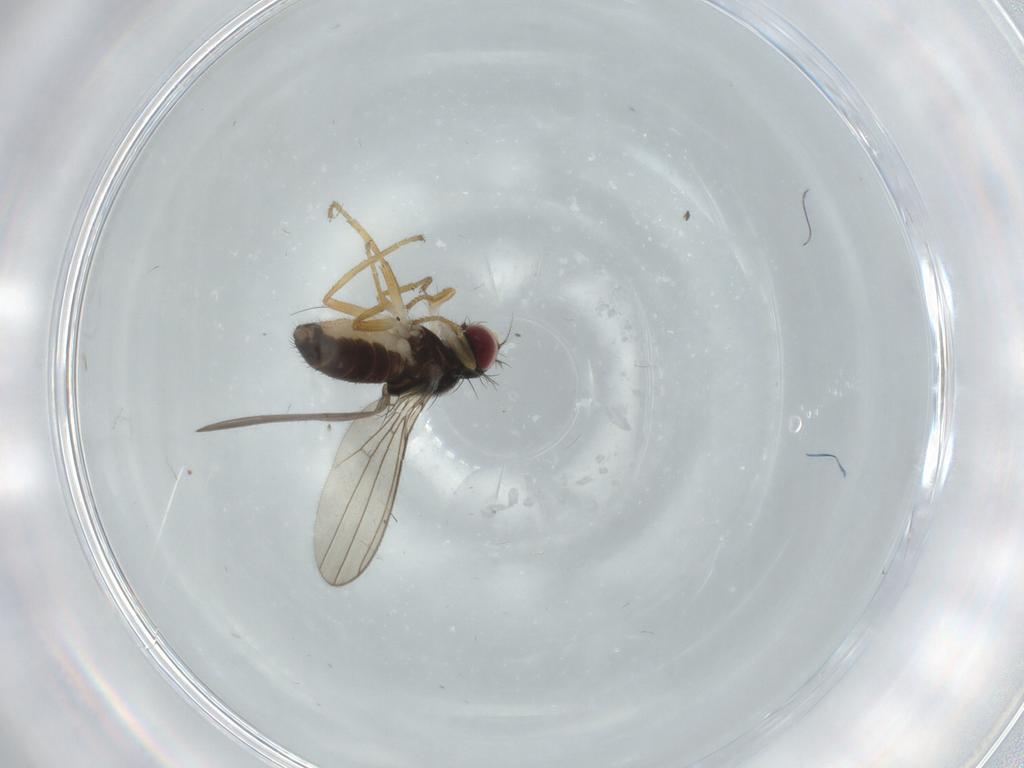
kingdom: Animalia
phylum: Arthropoda
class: Insecta
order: Diptera
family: Anthomyzidae
